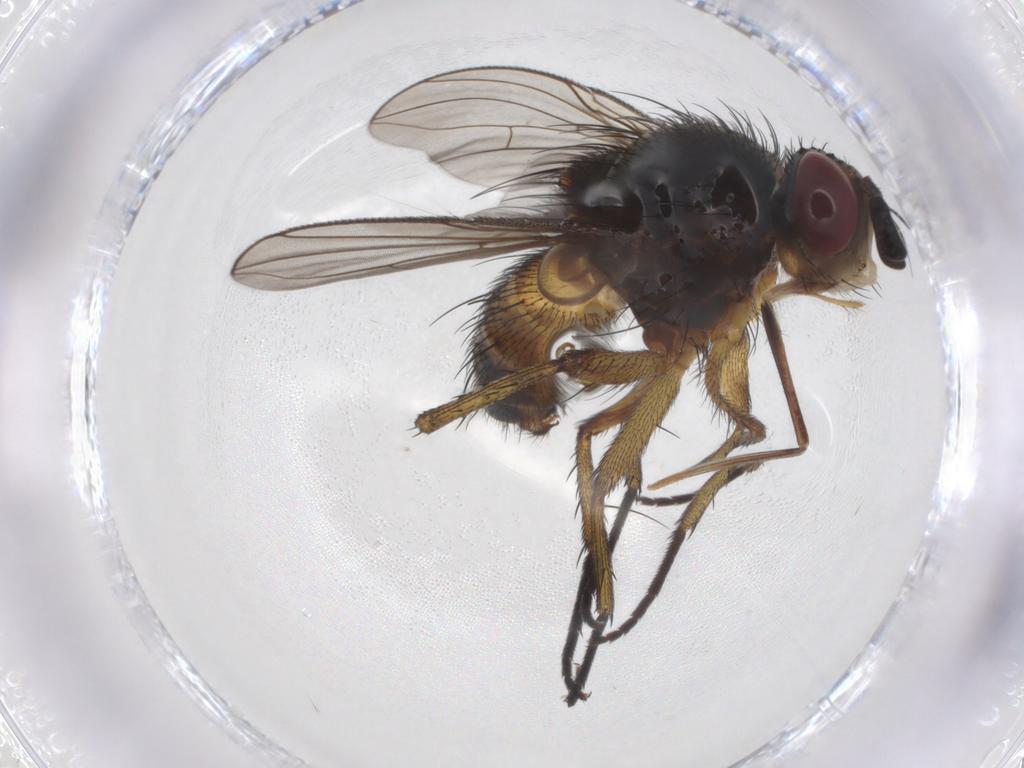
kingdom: Animalia
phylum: Arthropoda
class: Insecta
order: Diptera
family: Tachinidae
